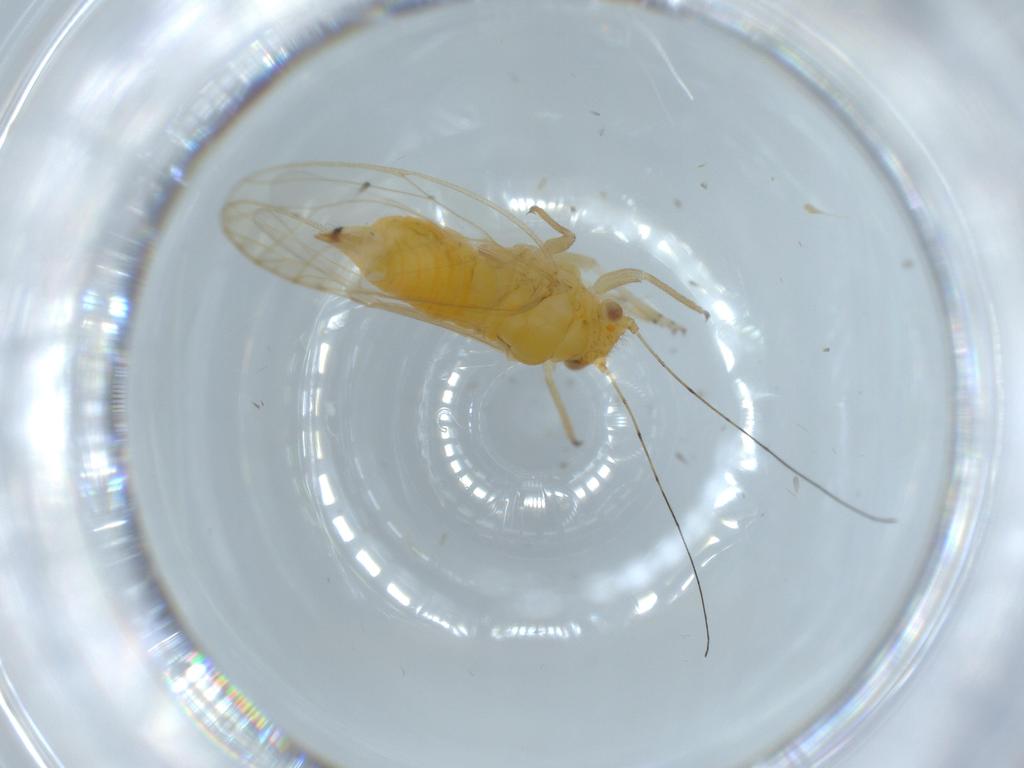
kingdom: Animalia
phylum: Arthropoda
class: Insecta
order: Hemiptera
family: Psyllidae
